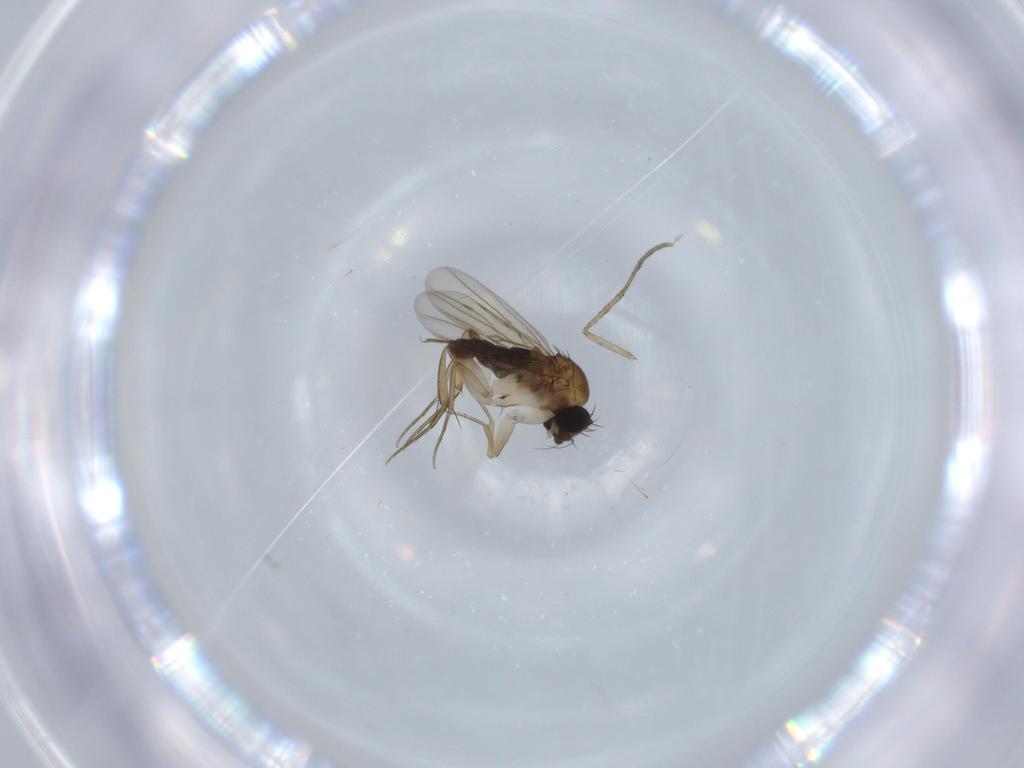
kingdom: Animalia
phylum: Arthropoda
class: Insecta
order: Diptera
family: Phoridae
